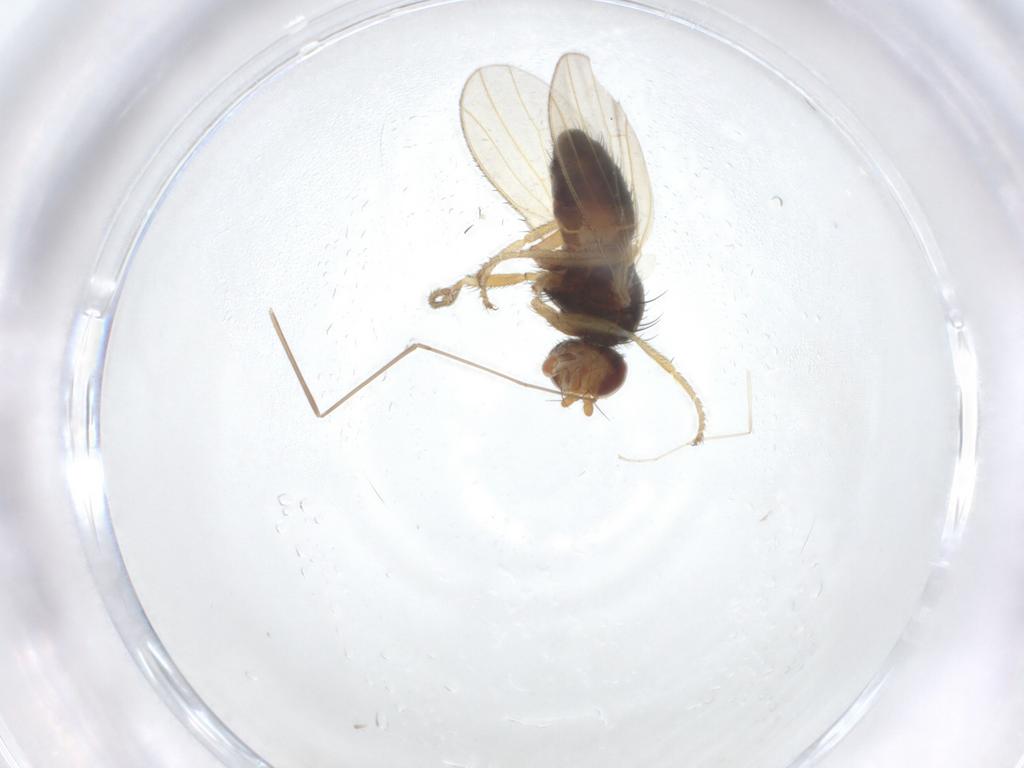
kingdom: Animalia
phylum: Arthropoda
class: Insecta
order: Diptera
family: Heleomyzidae
